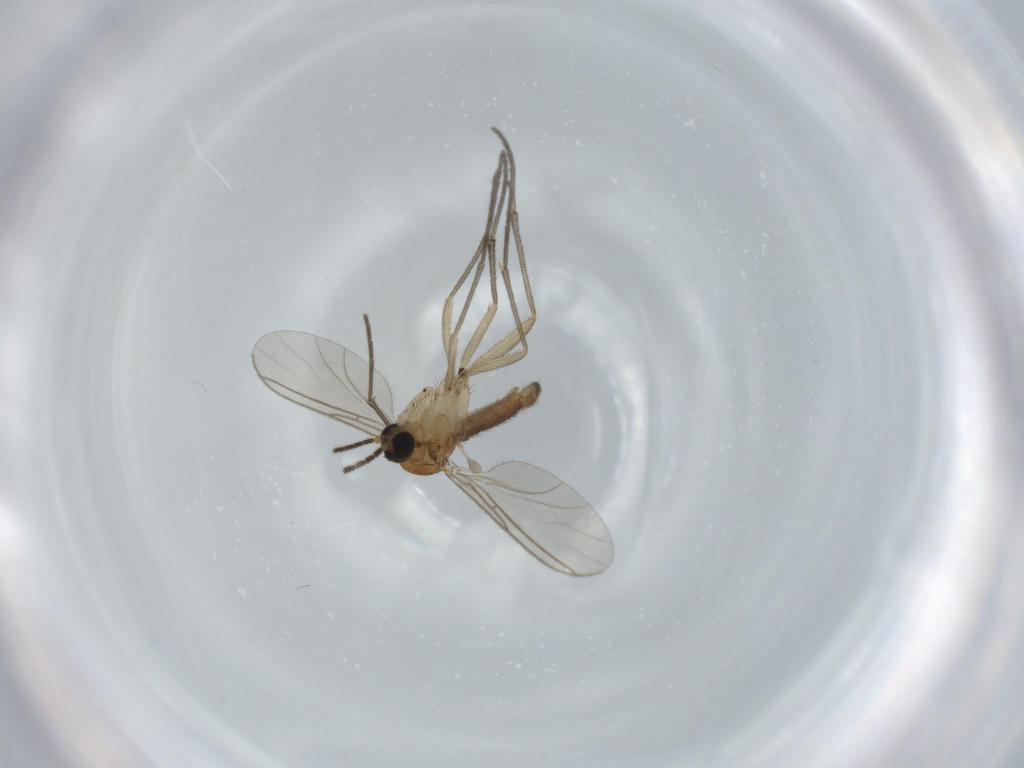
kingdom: Animalia
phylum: Arthropoda
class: Insecta
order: Diptera
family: Sciaridae
